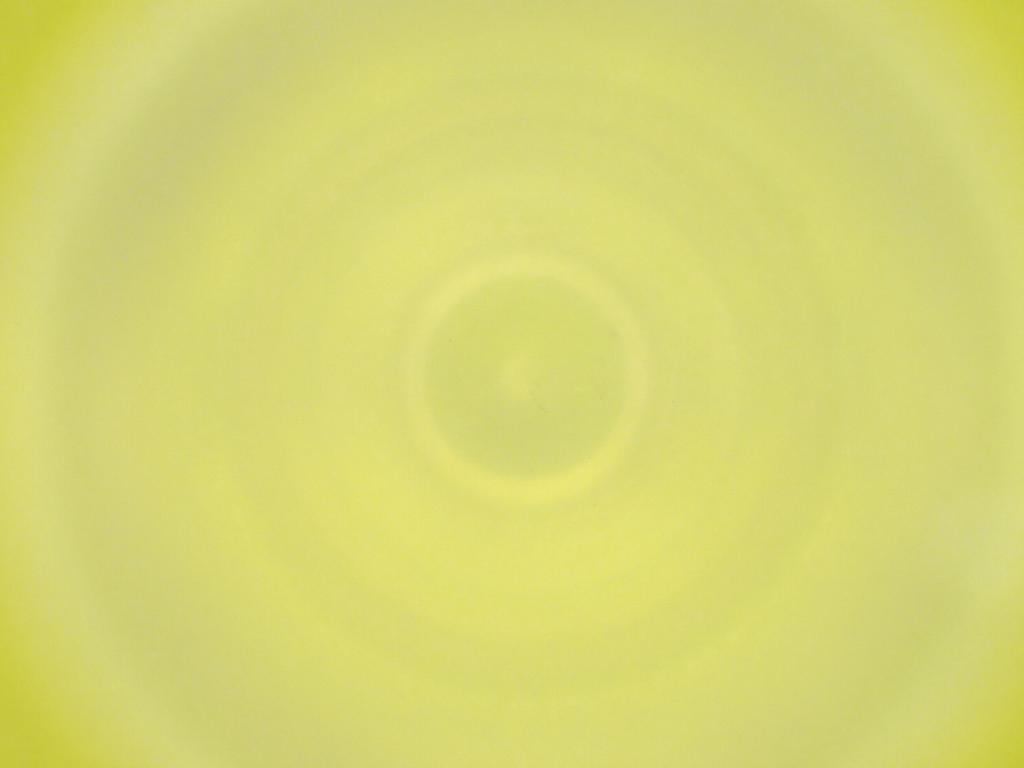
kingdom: Animalia
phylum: Arthropoda
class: Insecta
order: Diptera
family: Cecidomyiidae
